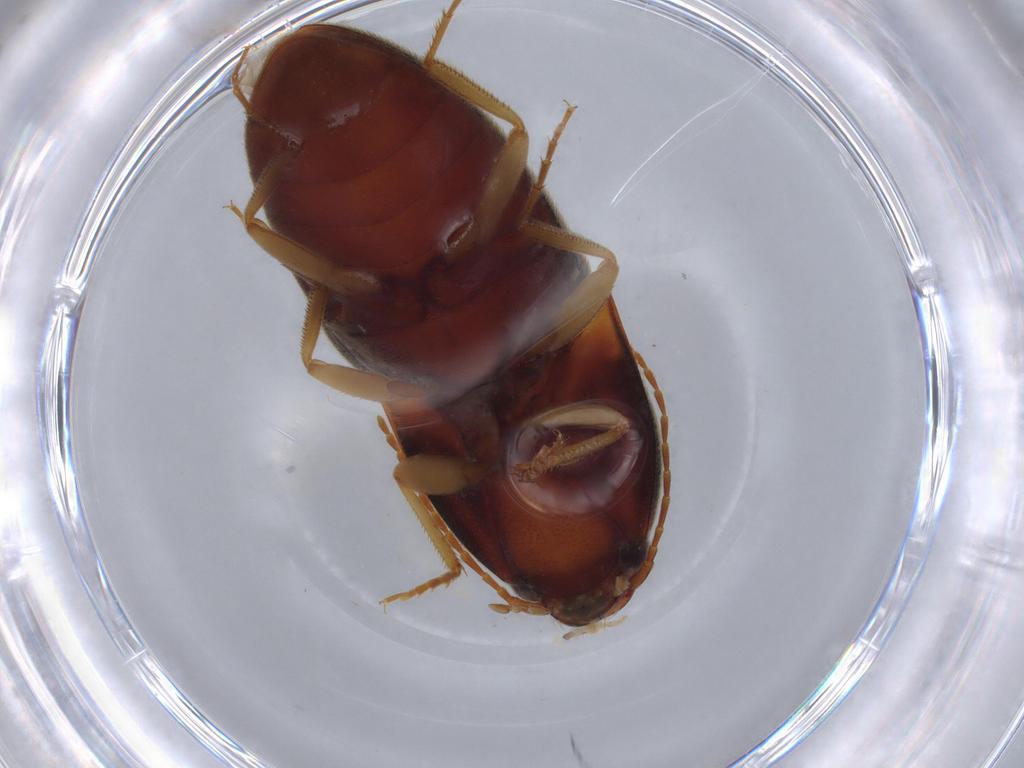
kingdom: Animalia
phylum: Arthropoda
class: Insecta
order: Coleoptera
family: Elateridae
